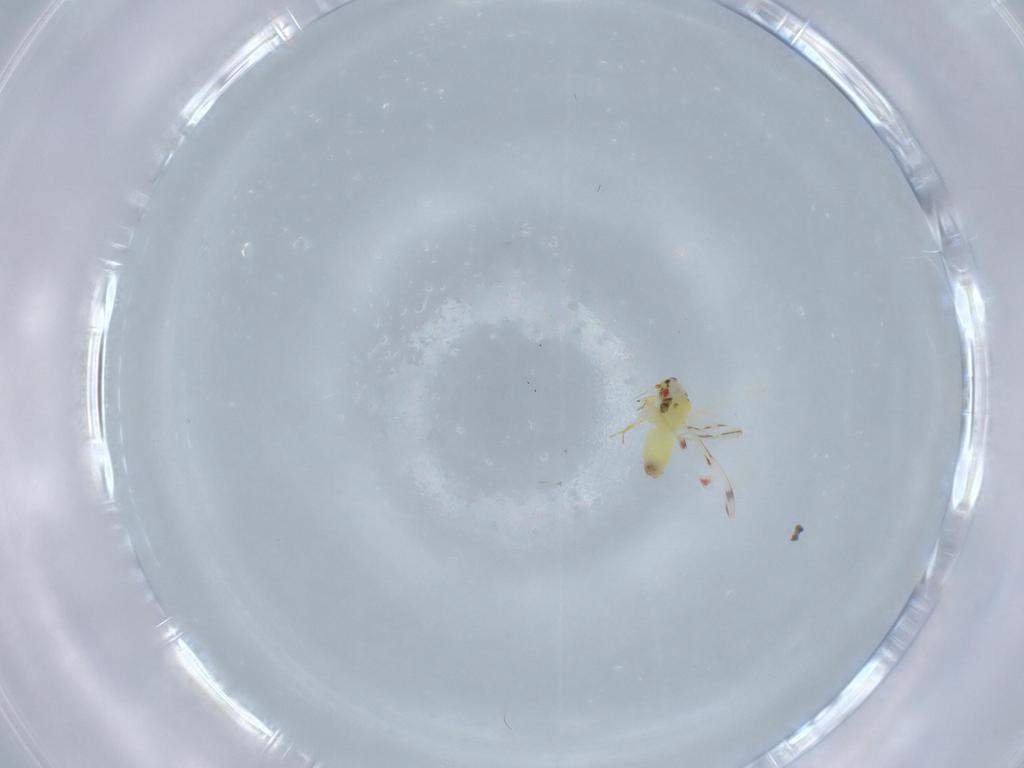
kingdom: Animalia
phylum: Arthropoda
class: Insecta
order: Hemiptera
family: Aleyrodidae
